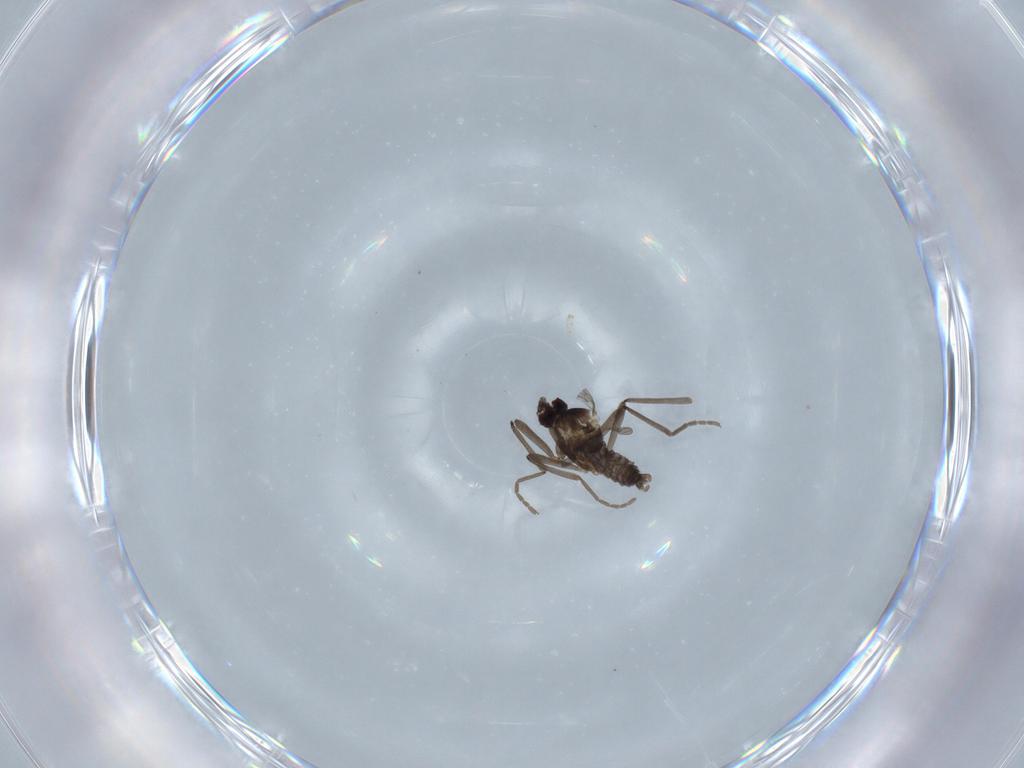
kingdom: Animalia
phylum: Arthropoda
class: Insecta
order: Diptera
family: Cecidomyiidae
